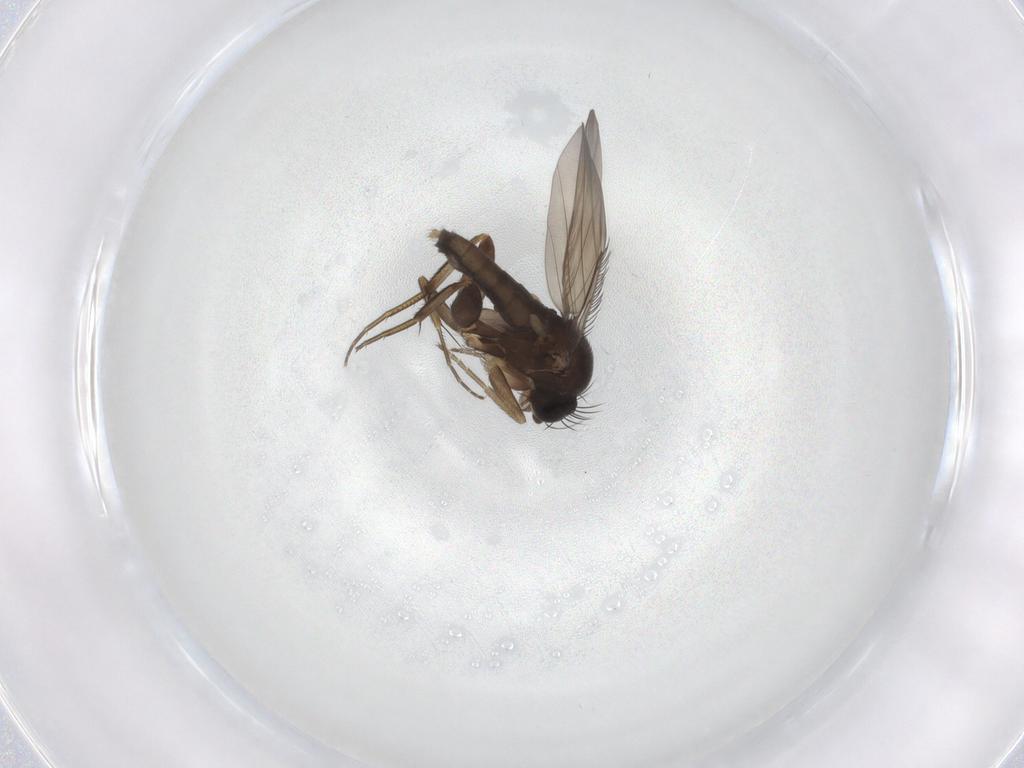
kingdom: Animalia
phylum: Arthropoda
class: Insecta
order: Diptera
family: Phoridae
